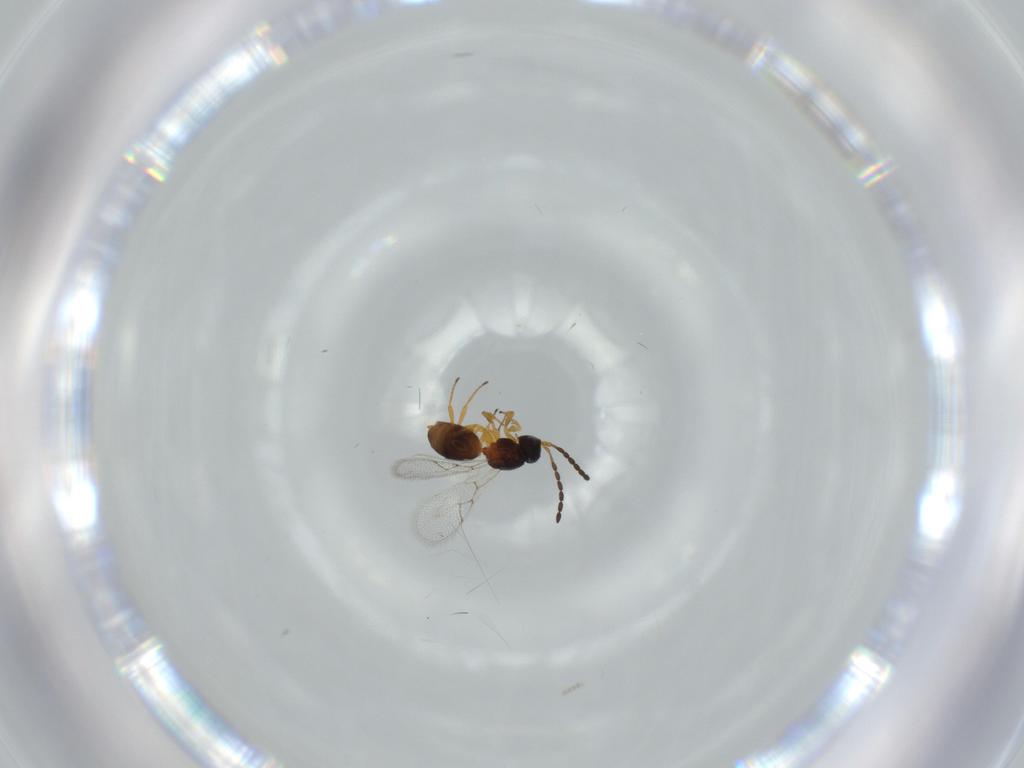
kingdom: Animalia
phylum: Arthropoda
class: Insecta
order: Hymenoptera
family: Figitidae
